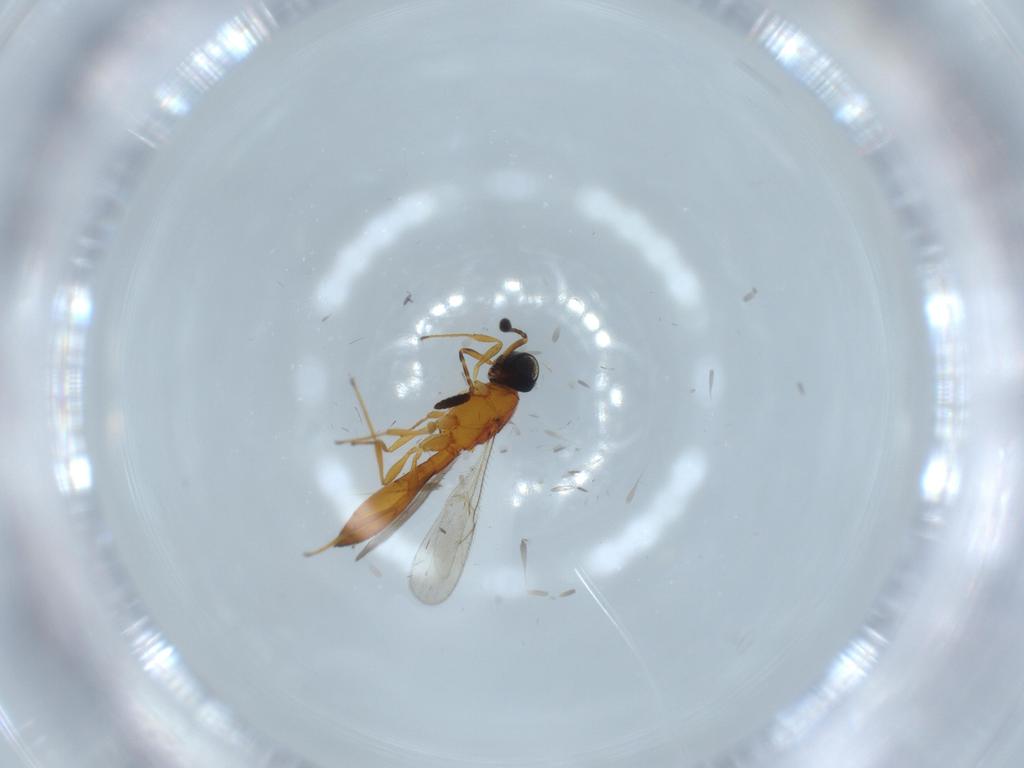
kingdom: Animalia
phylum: Arthropoda
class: Insecta
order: Hymenoptera
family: Scelionidae
